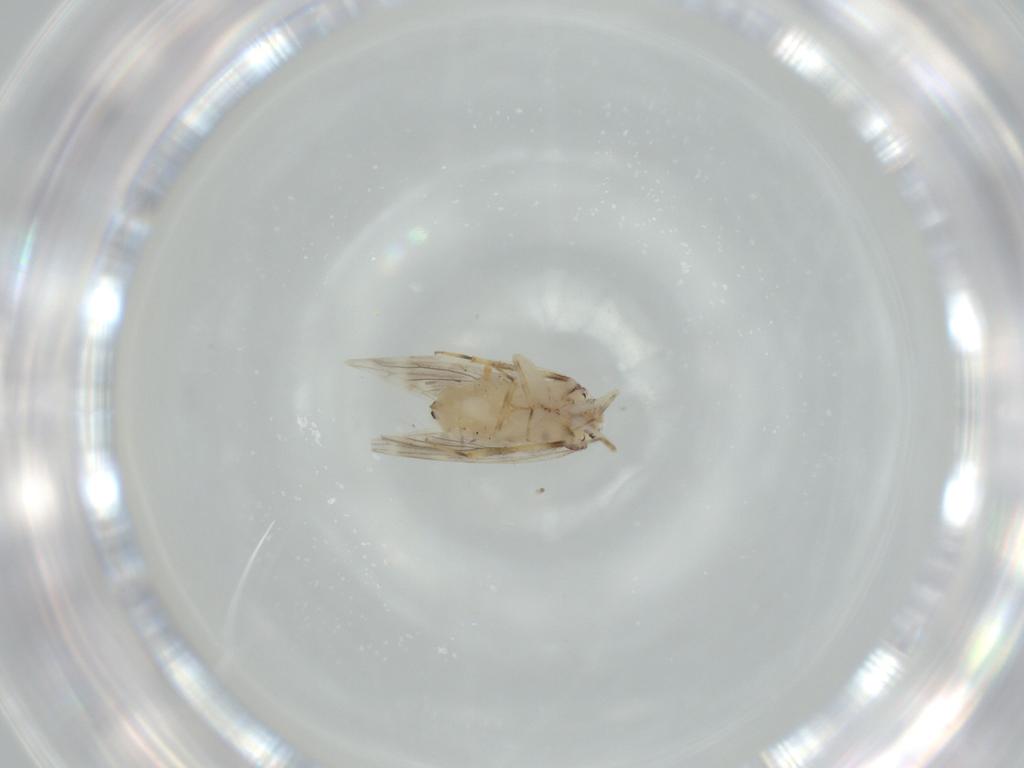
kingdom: Animalia
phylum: Arthropoda
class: Insecta
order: Psocodea
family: Lepidopsocidae
